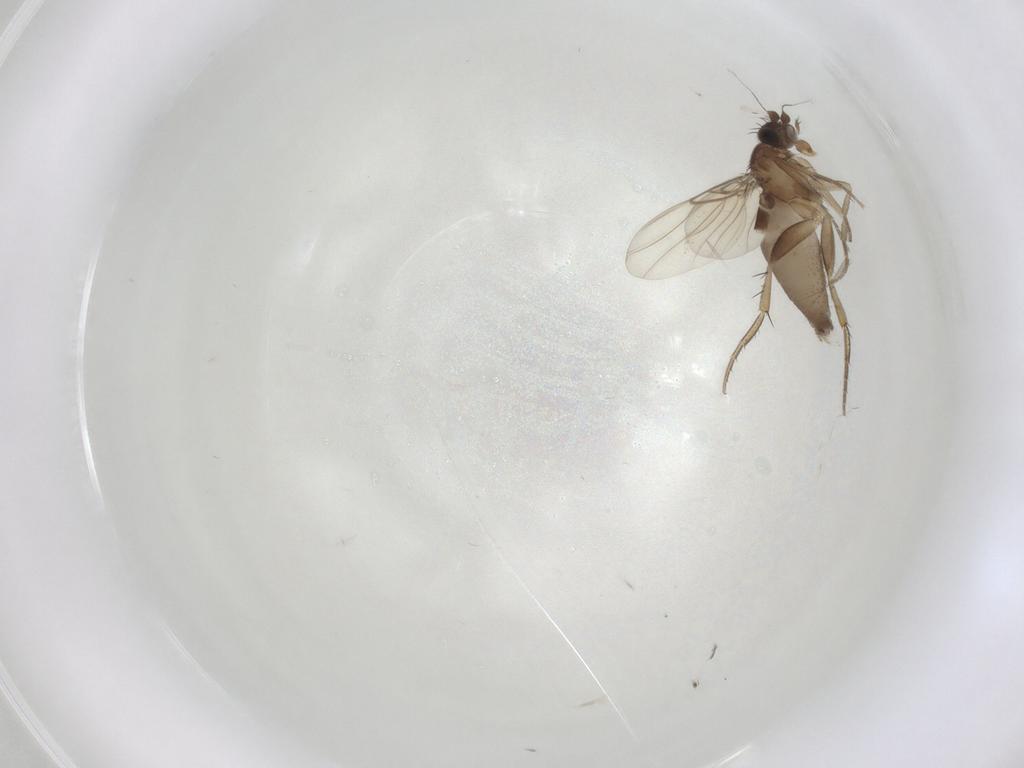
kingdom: Animalia
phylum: Arthropoda
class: Insecta
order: Diptera
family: Phoridae
